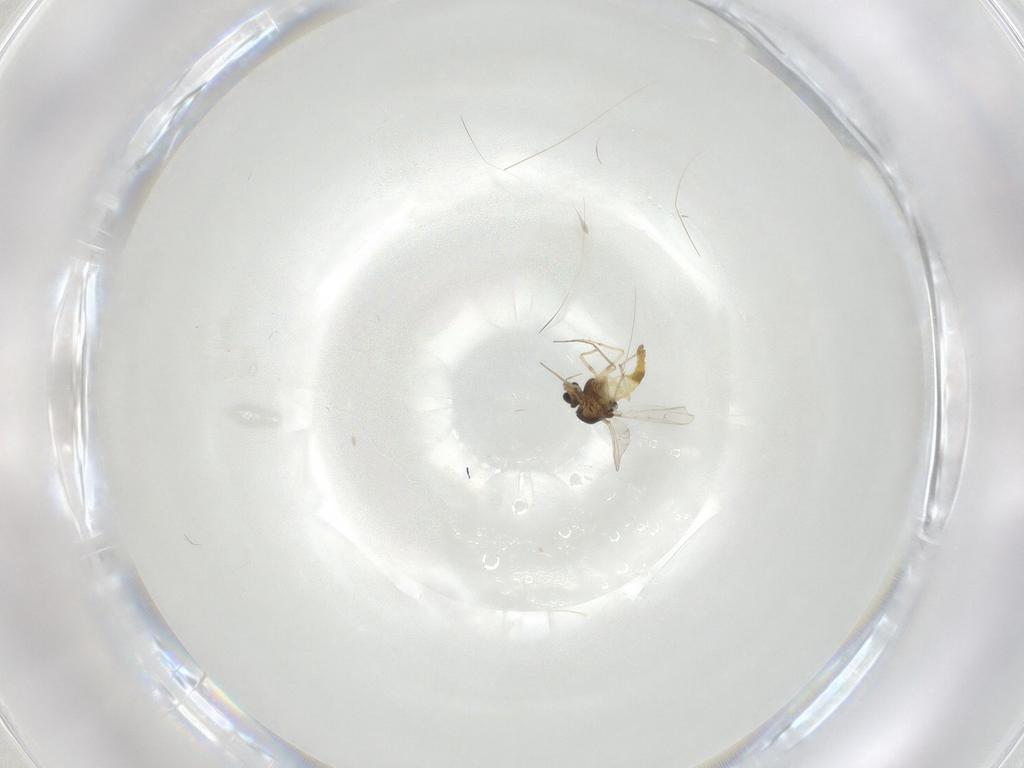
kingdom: Animalia
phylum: Arthropoda
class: Insecta
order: Diptera
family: Chironomidae
